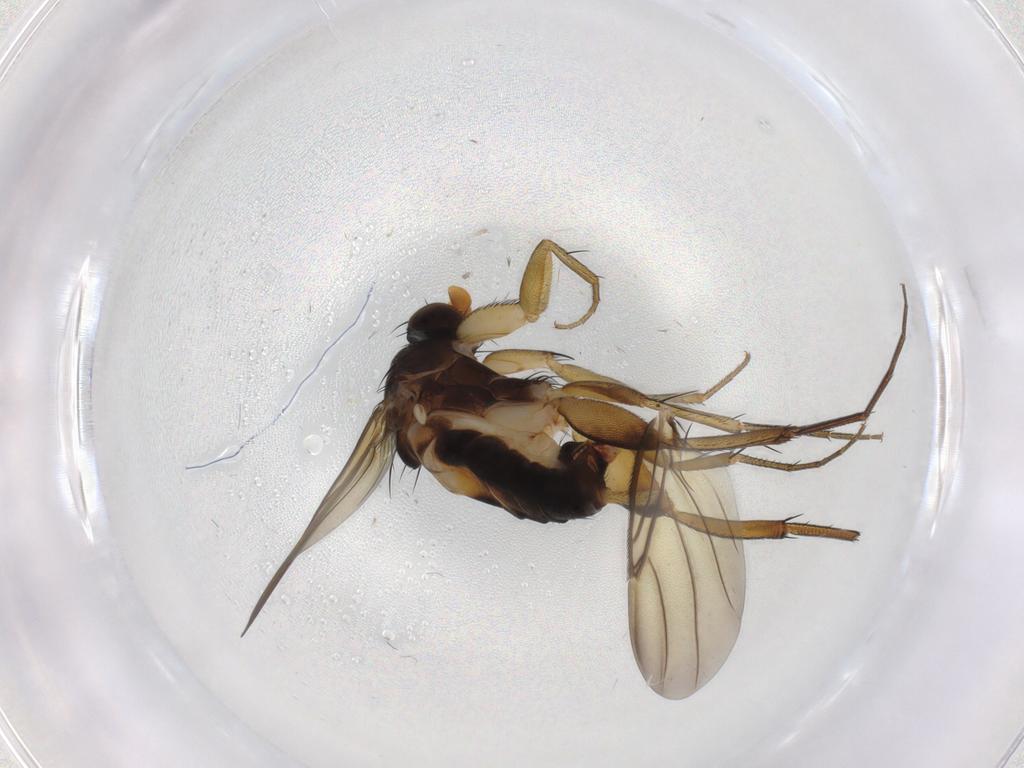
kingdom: Animalia
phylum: Arthropoda
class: Insecta
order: Diptera
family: Phoridae
